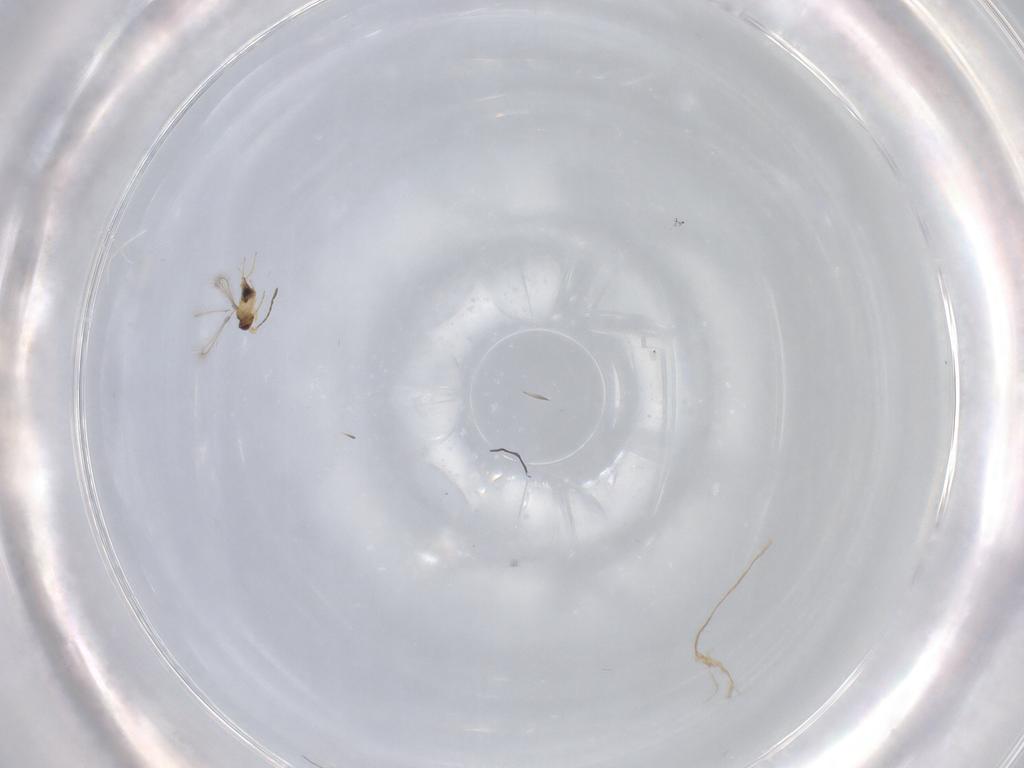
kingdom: Animalia
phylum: Arthropoda
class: Insecta
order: Hymenoptera
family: Mymaridae
